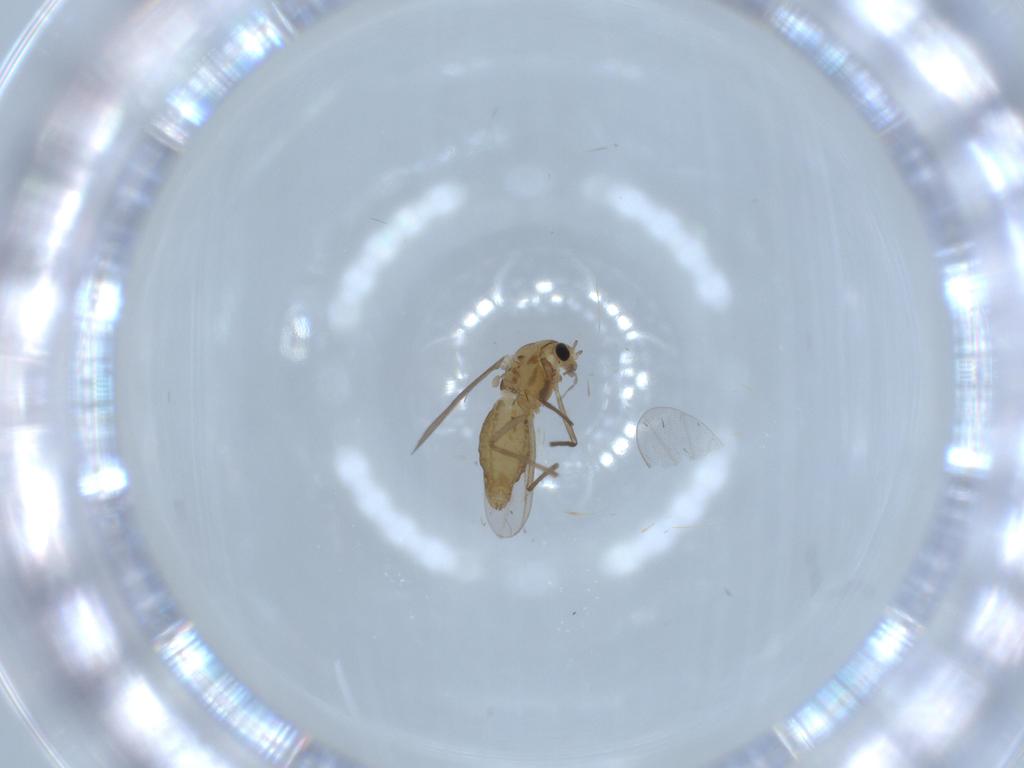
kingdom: Animalia
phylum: Arthropoda
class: Insecta
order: Diptera
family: Chironomidae
